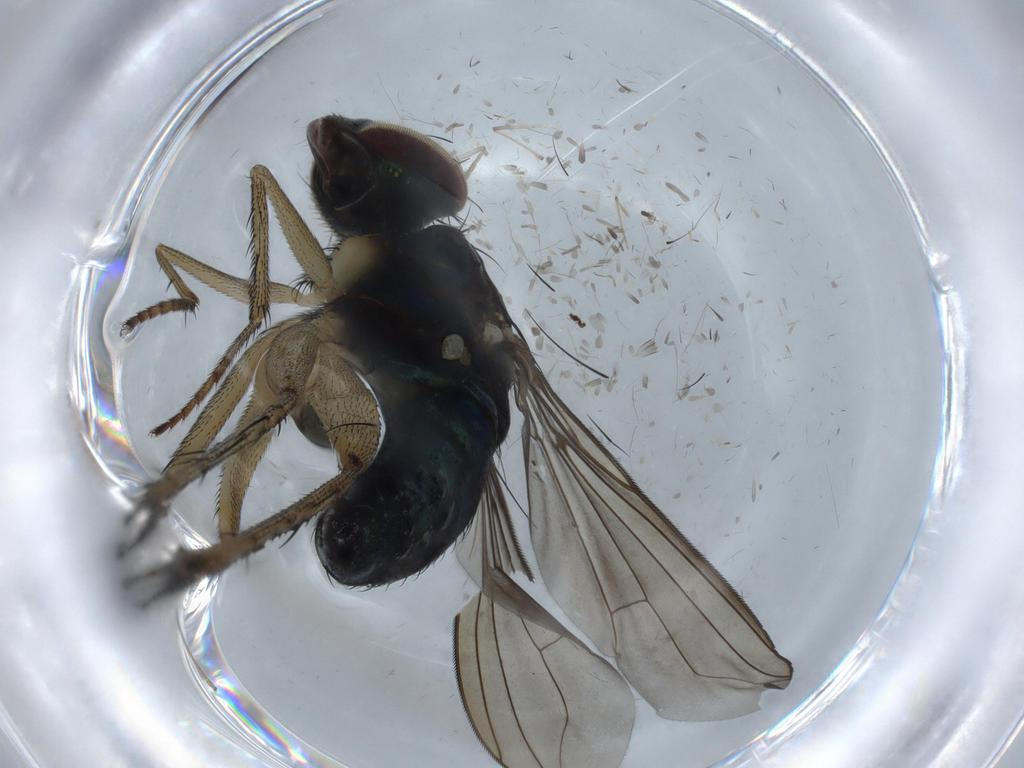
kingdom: Animalia
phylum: Arthropoda
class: Insecta
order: Diptera
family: Dolichopodidae
